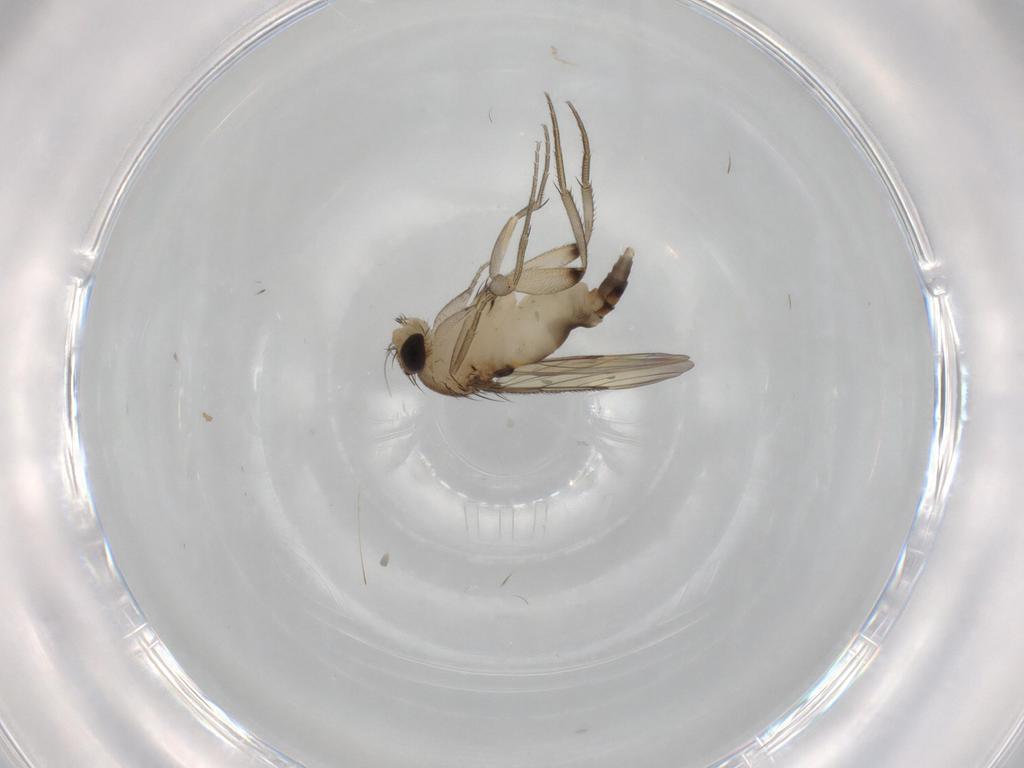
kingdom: Animalia
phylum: Arthropoda
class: Insecta
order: Diptera
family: Phoridae
